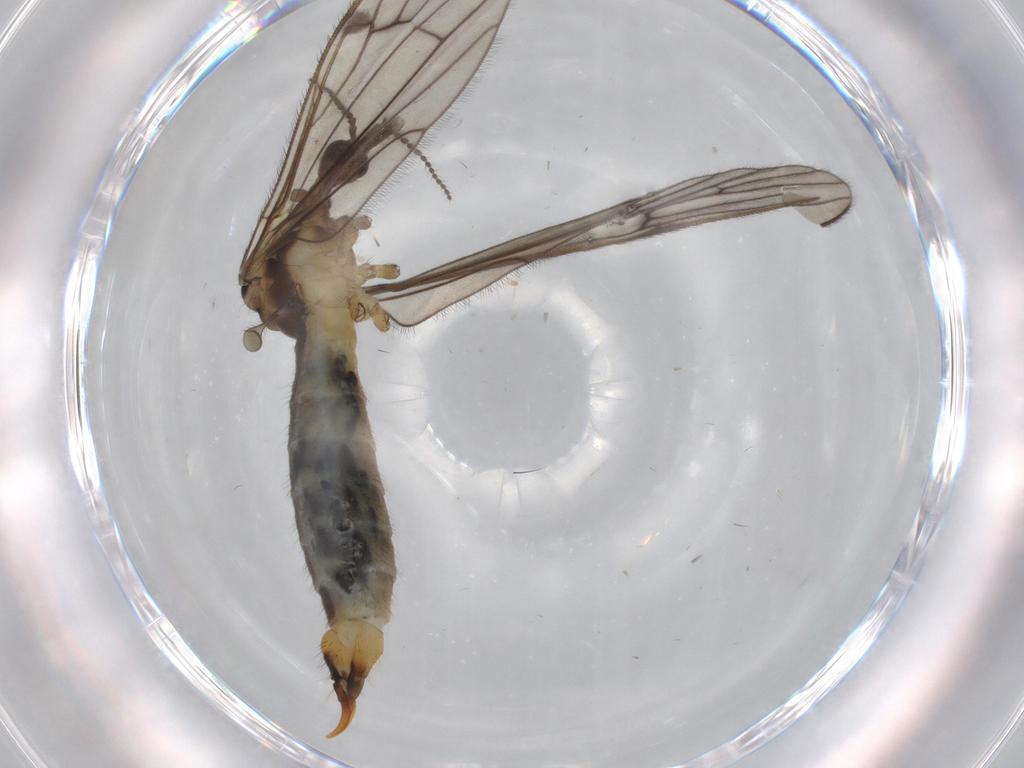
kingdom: Animalia
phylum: Arthropoda
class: Insecta
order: Diptera
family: Limoniidae
